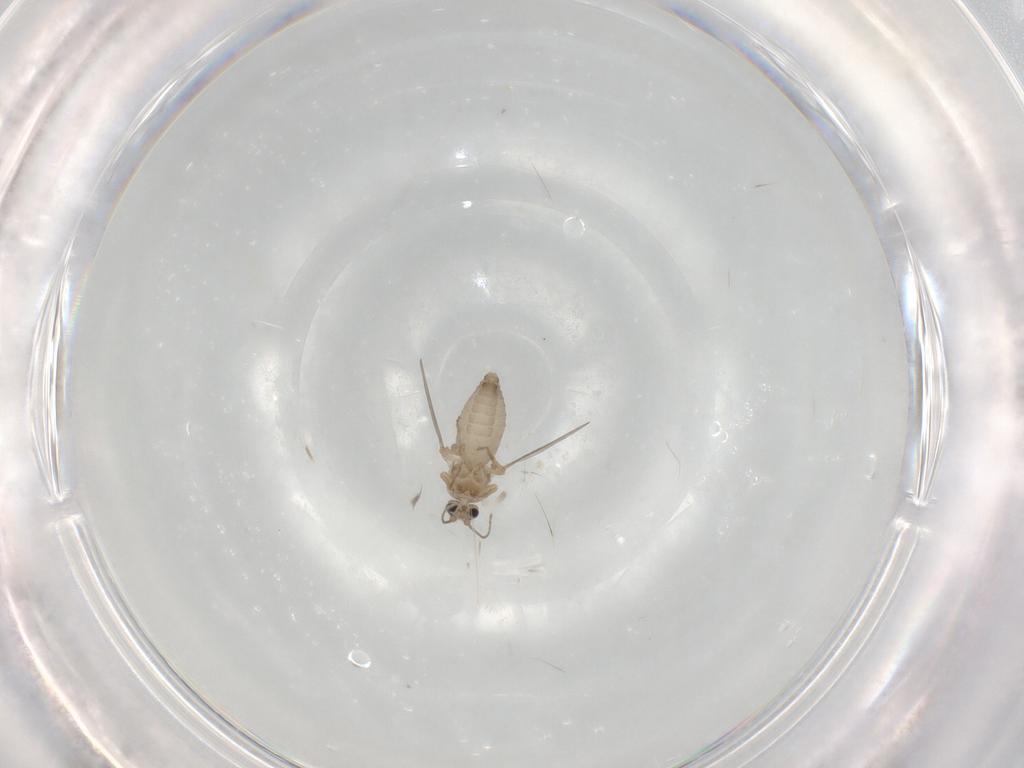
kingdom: Animalia
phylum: Arthropoda
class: Insecta
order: Diptera
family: Ceratopogonidae
